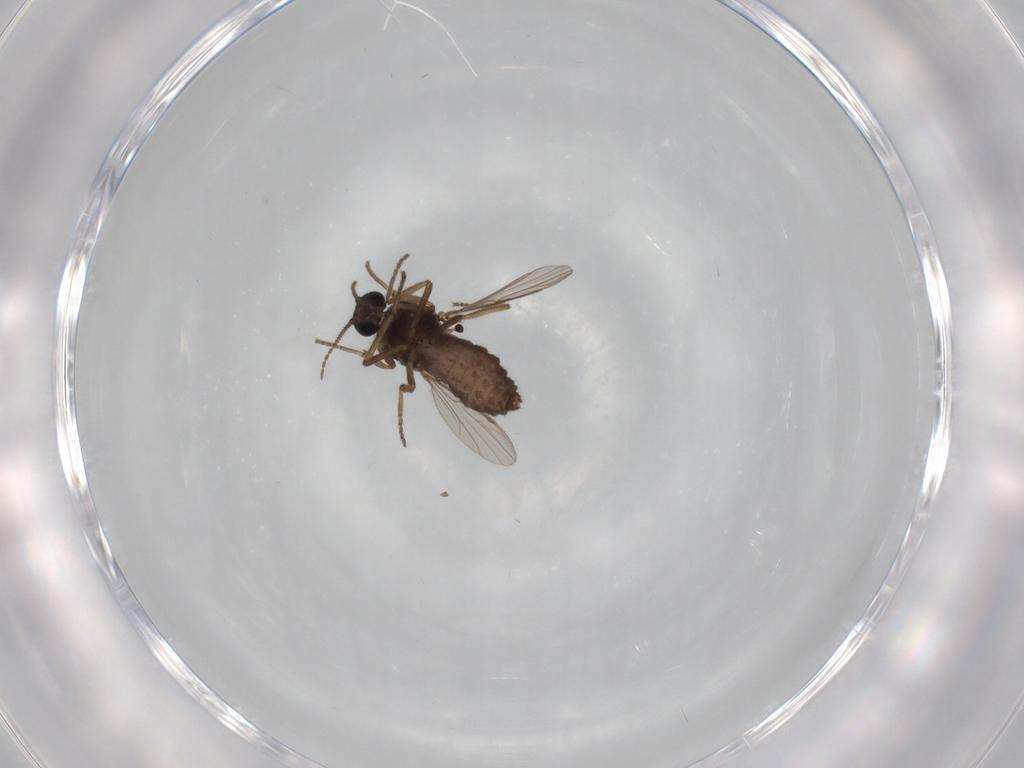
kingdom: Animalia
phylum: Arthropoda
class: Insecta
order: Diptera
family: Ceratopogonidae
